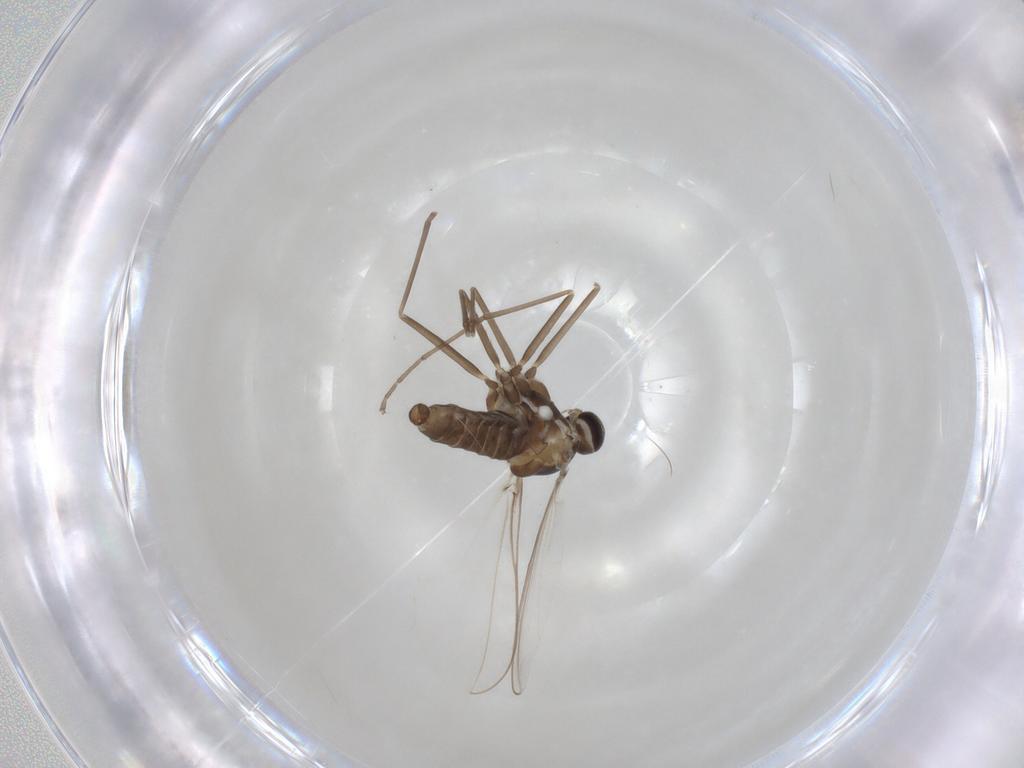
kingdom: Animalia
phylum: Arthropoda
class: Insecta
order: Diptera
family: Cecidomyiidae
